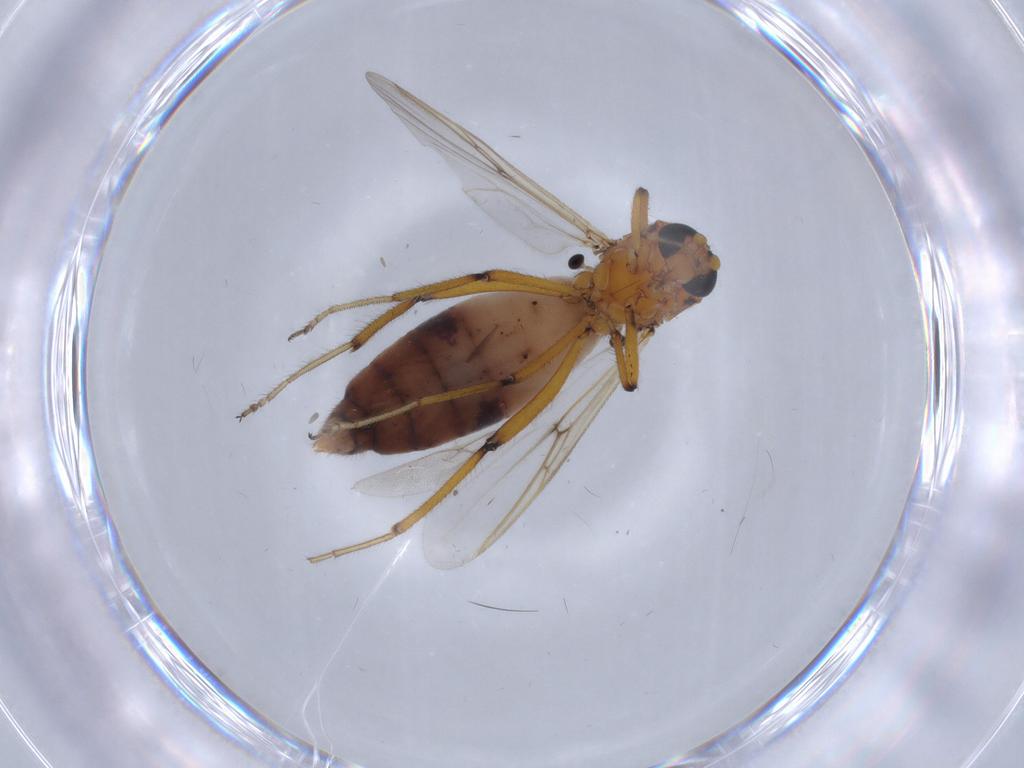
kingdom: Animalia
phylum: Arthropoda
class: Insecta
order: Diptera
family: Ceratopogonidae
